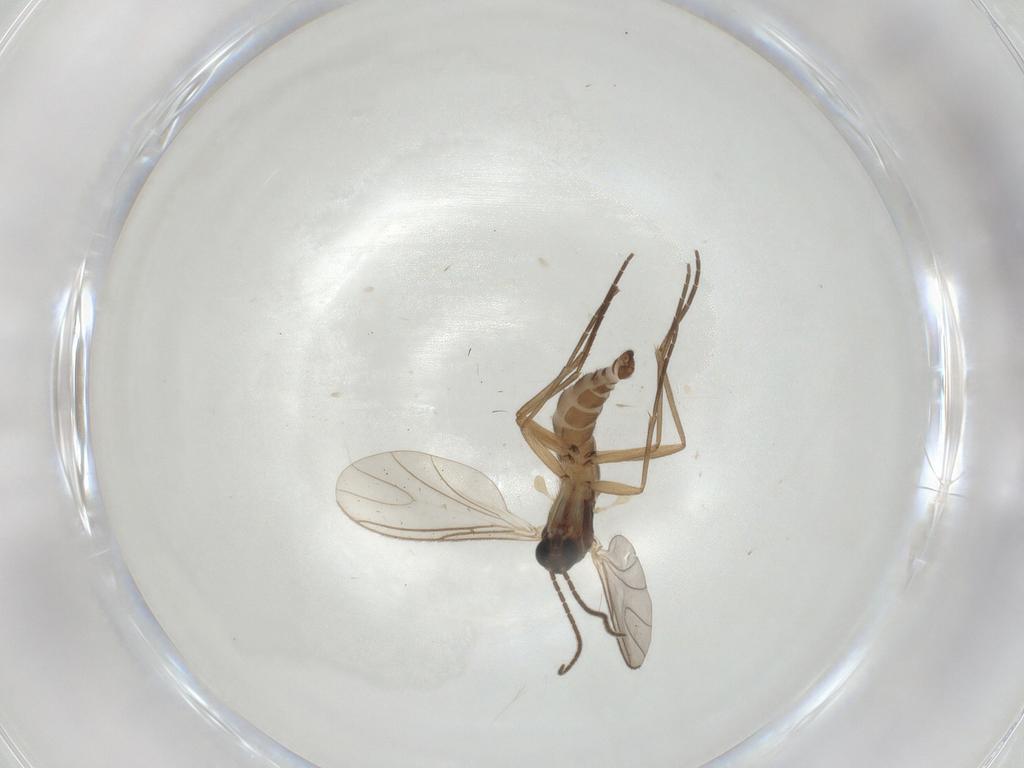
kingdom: Animalia
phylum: Arthropoda
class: Insecta
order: Diptera
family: Sciaridae
